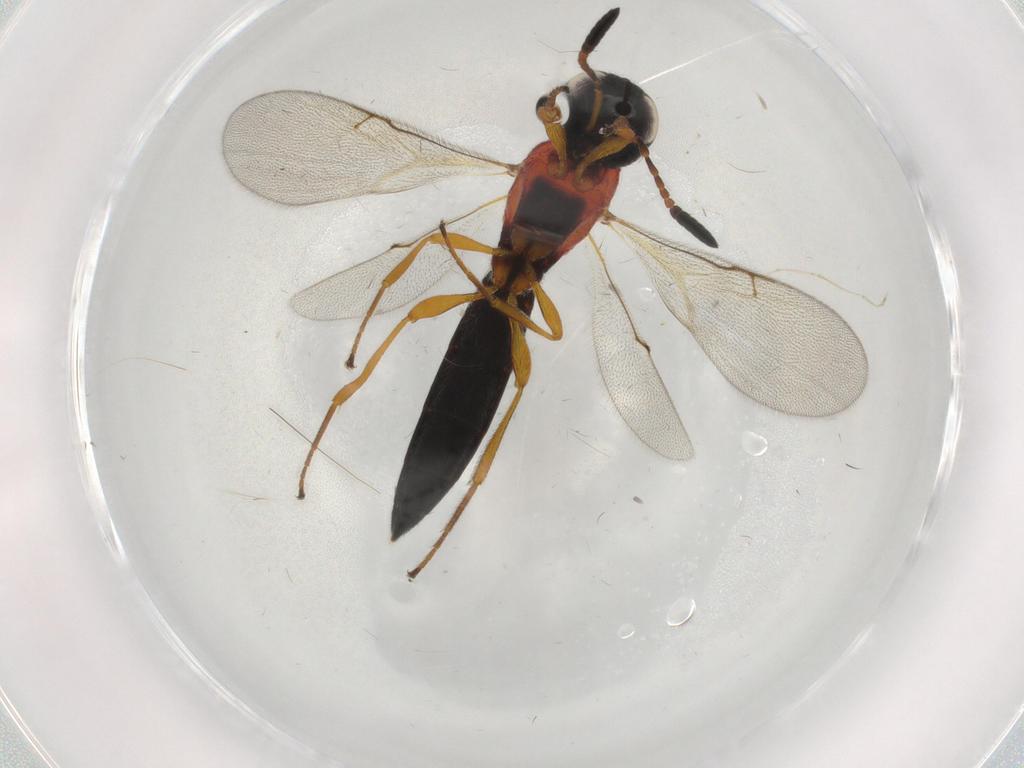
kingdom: Animalia
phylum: Arthropoda
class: Insecta
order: Hymenoptera
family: Scelionidae
